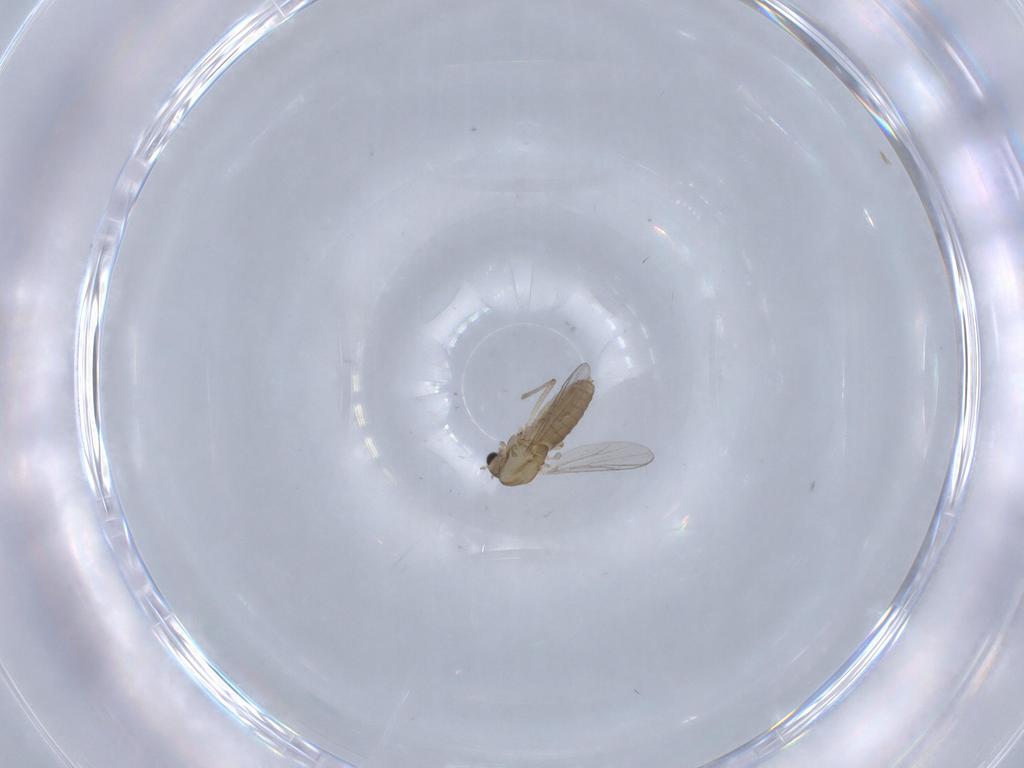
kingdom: Animalia
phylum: Arthropoda
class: Insecta
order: Diptera
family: Chironomidae
